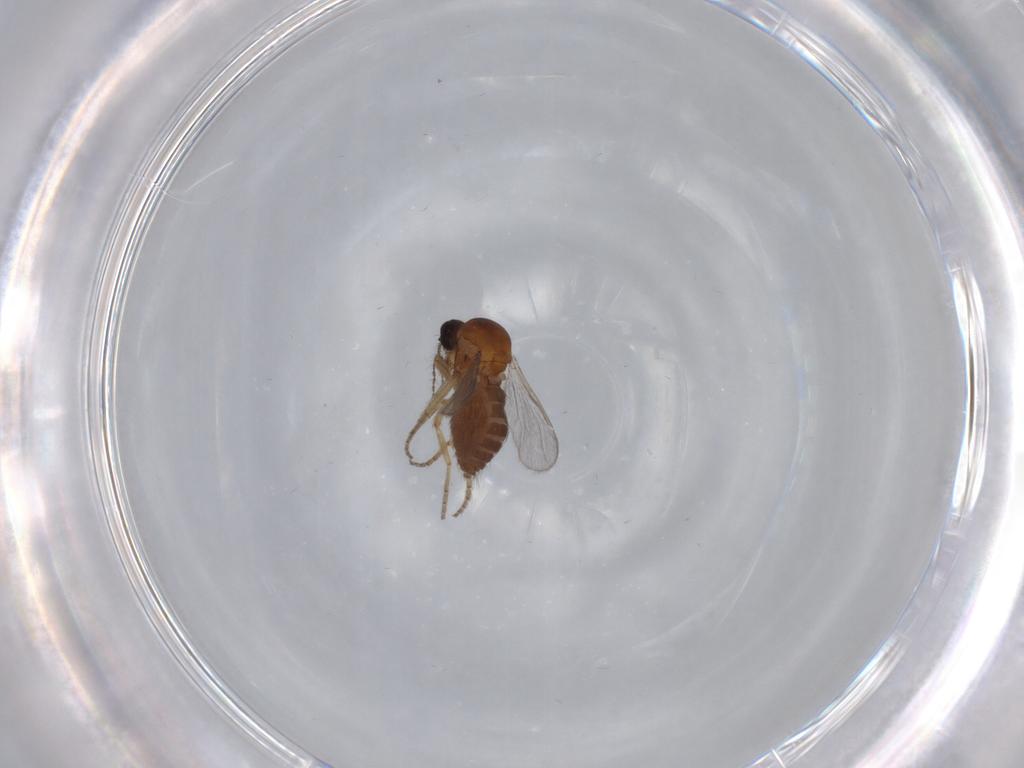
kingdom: Animalia
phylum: Arthropoda
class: Insecta
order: Diptera
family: Ceratopogonidae
